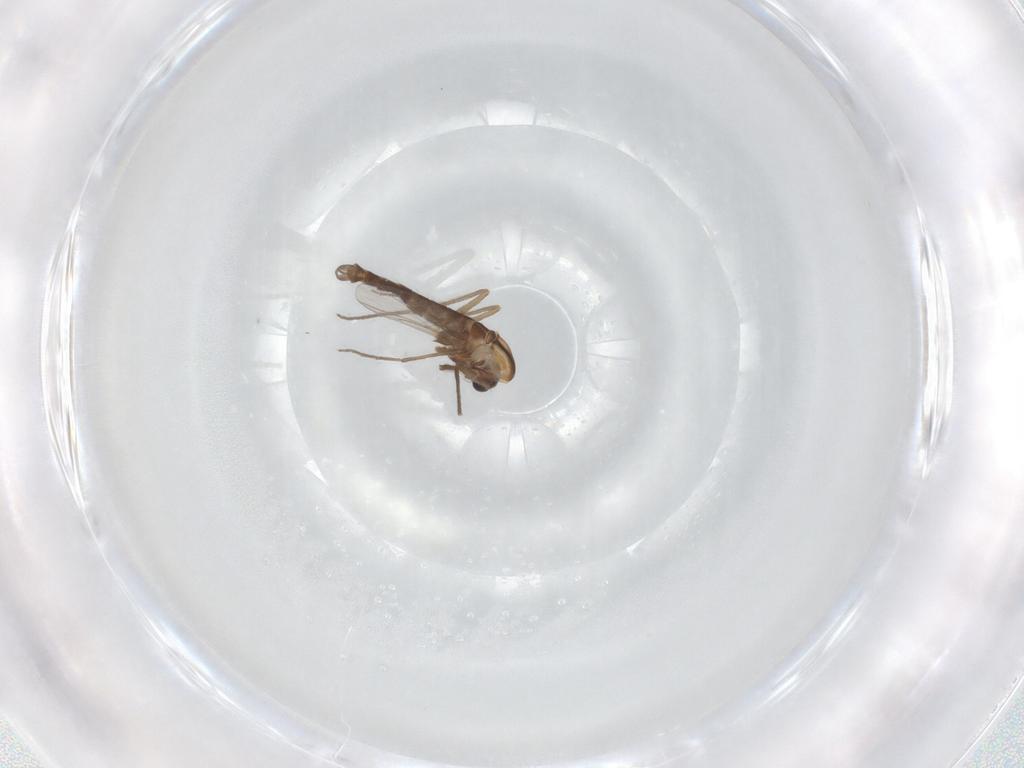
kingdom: Animalia
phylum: Arthropoda
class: Insecta
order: Diptera
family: Chironomidae
